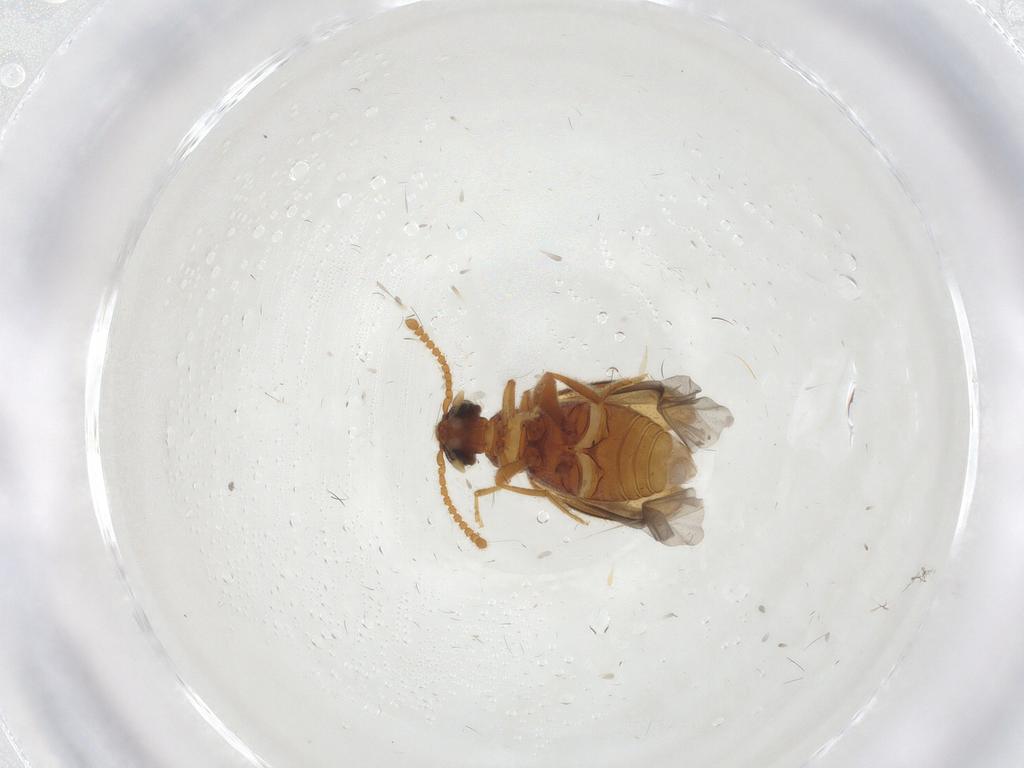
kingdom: Animalia
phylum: Arthropoda
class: Insecta
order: Coleoptera
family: Aderidae
